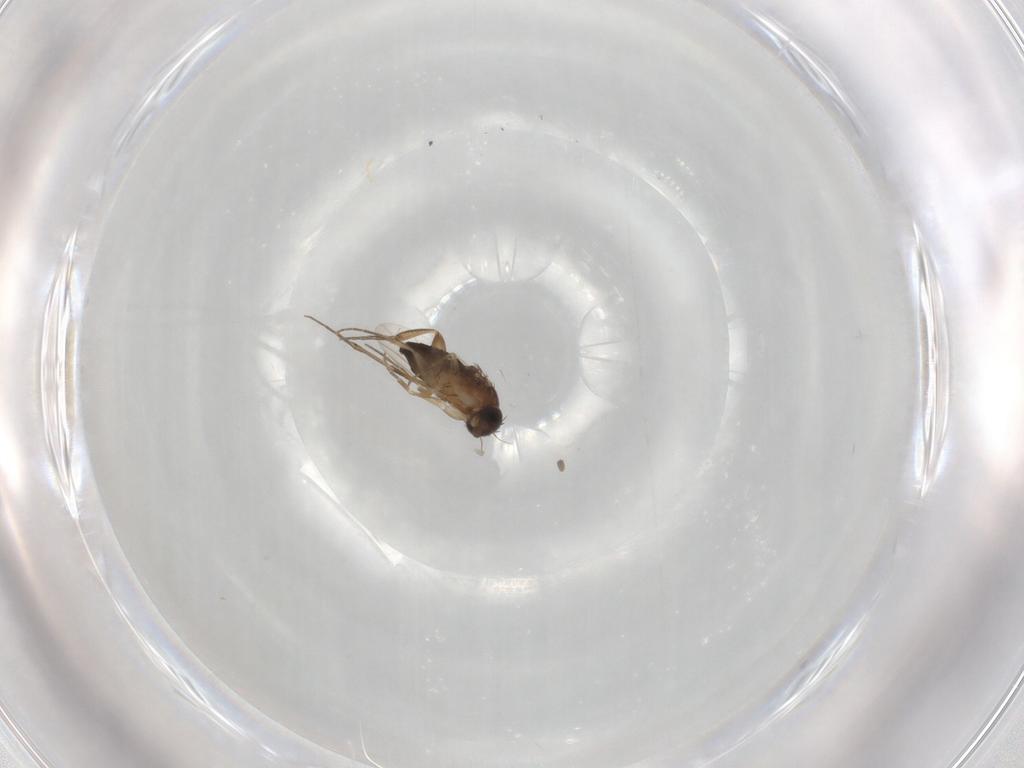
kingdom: Animalia
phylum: Arthropoda
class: Insecta
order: Diptera
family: Phoridae
